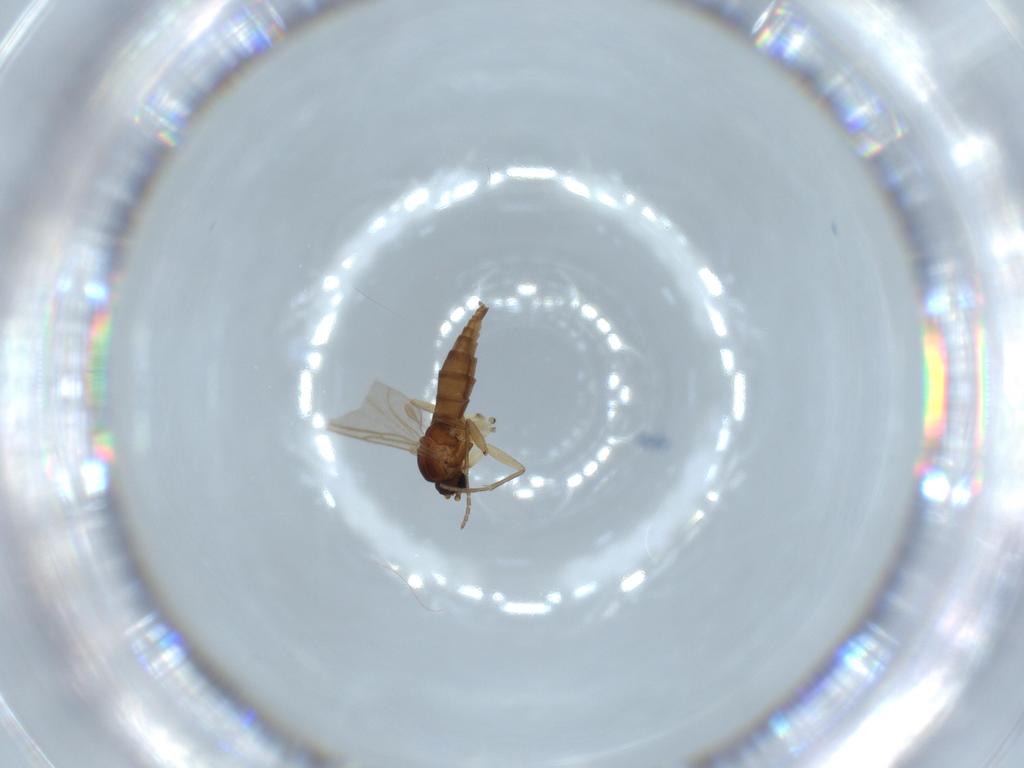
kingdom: Animalia
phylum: Arthropoda
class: Insecta
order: Diptera
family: Sciaridae
